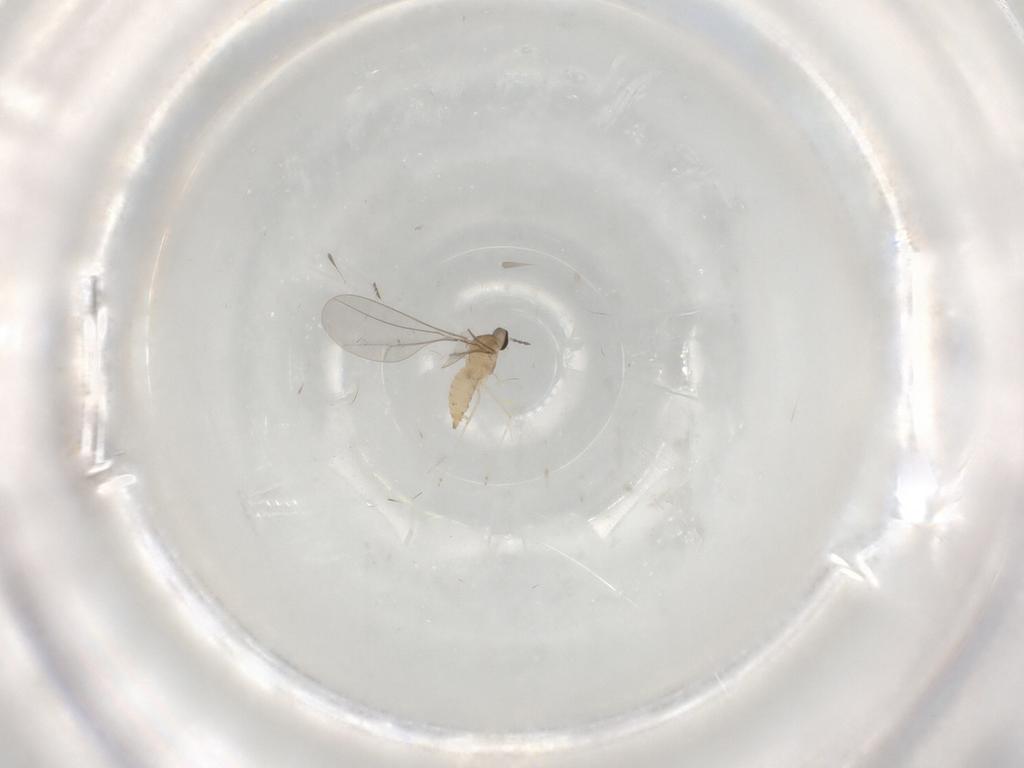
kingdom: Animalia
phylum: Arthropoda
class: Insecta
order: Diptera
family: Cecidomyiidae
